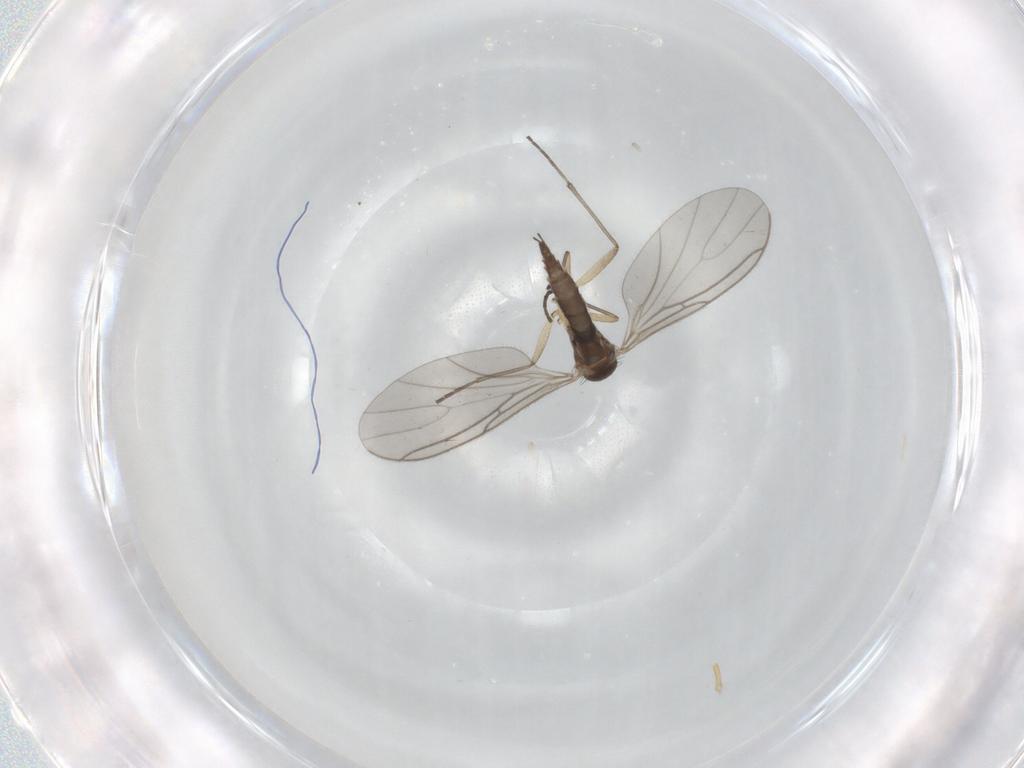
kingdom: Animalia
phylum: Arthropoda
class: Insecta
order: Diptera
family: Sciaridae
